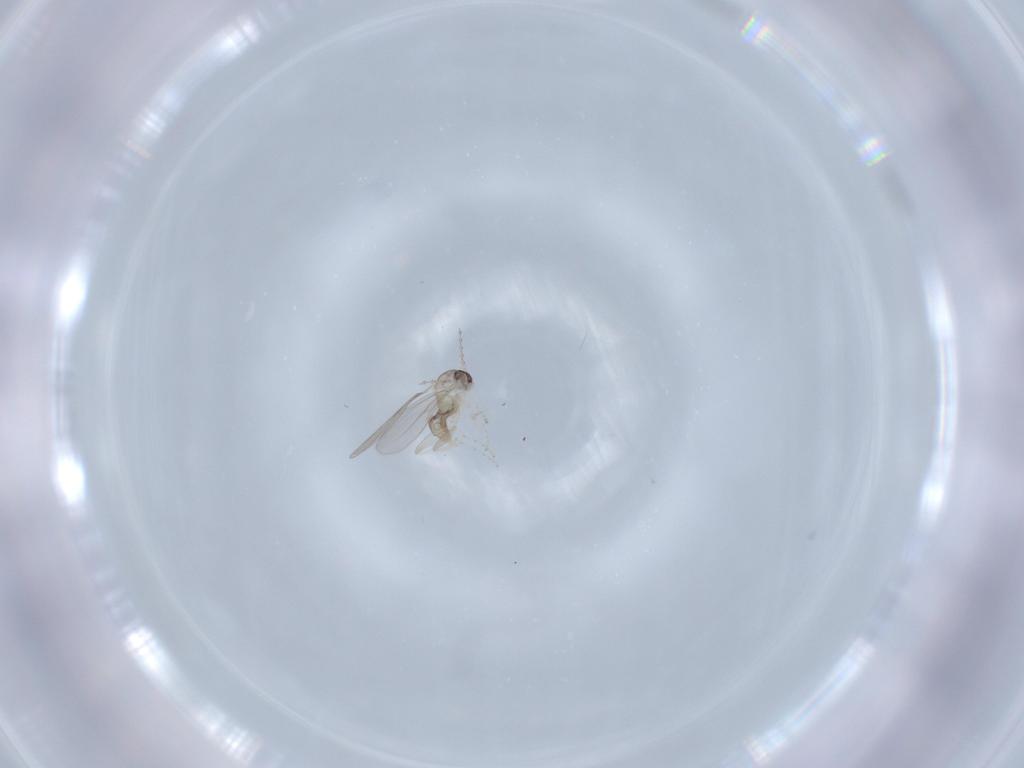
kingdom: Animalia
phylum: Arthropoda
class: Insecta
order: Diptera
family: Cecidomyiidae
